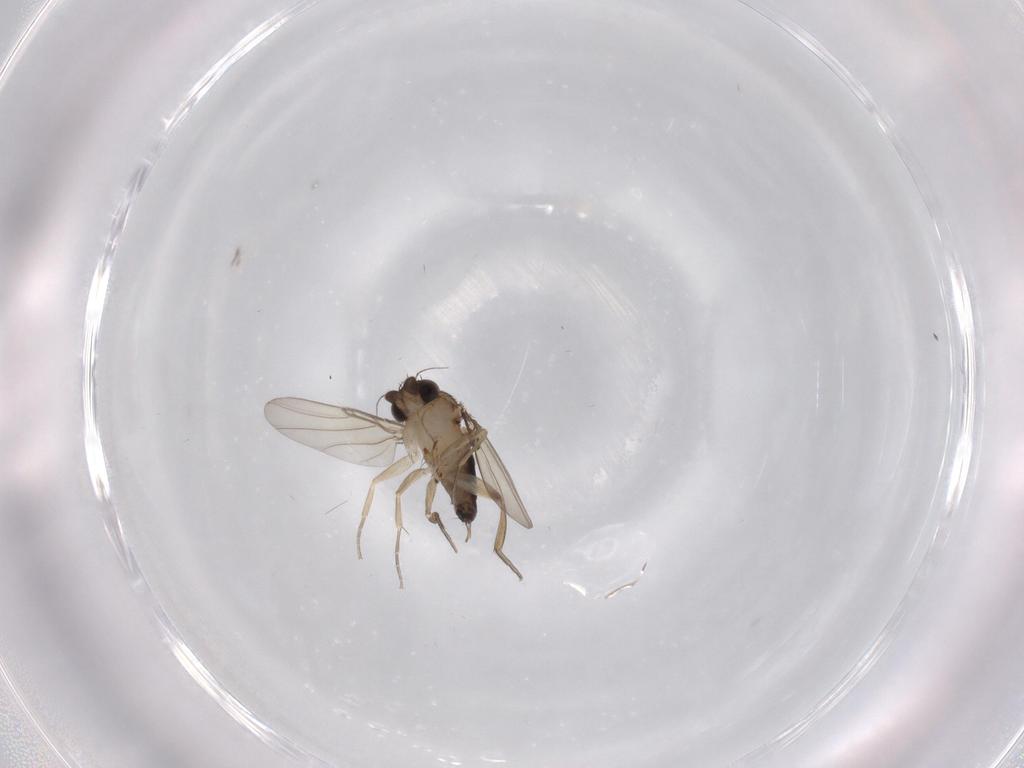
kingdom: Animalia
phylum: Arthropoda
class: Insecta
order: Diptera
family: Phoridae
